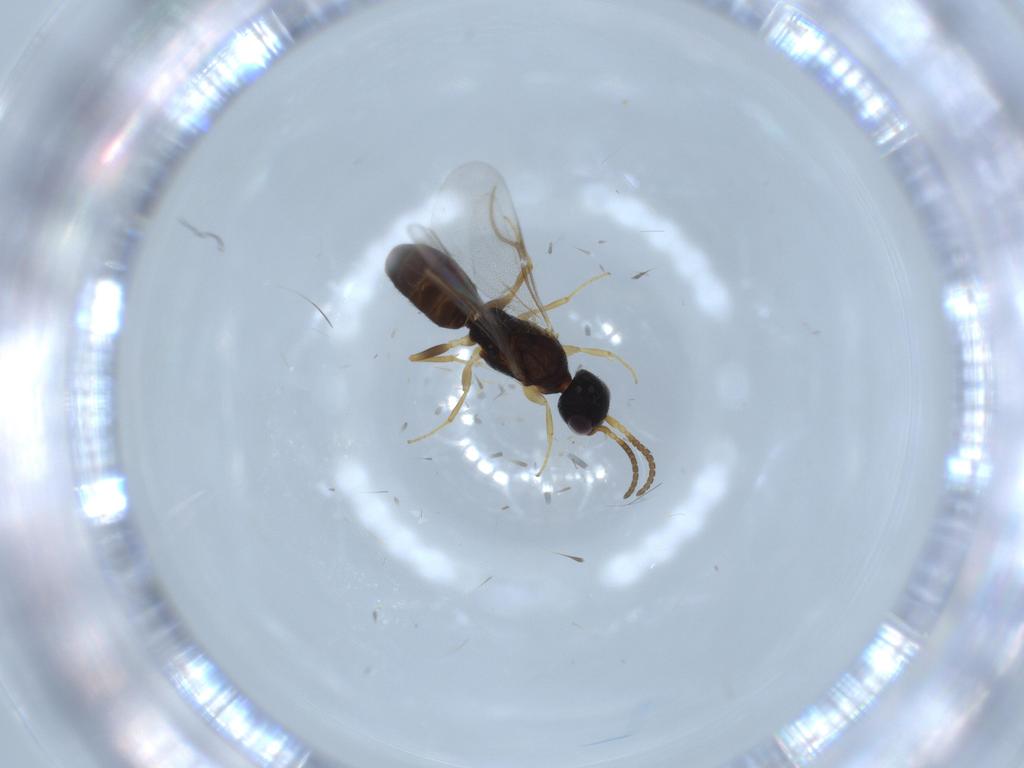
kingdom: Animalia
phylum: Arthropoda
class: Insecta
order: Hymenoptera
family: Bethylidae
